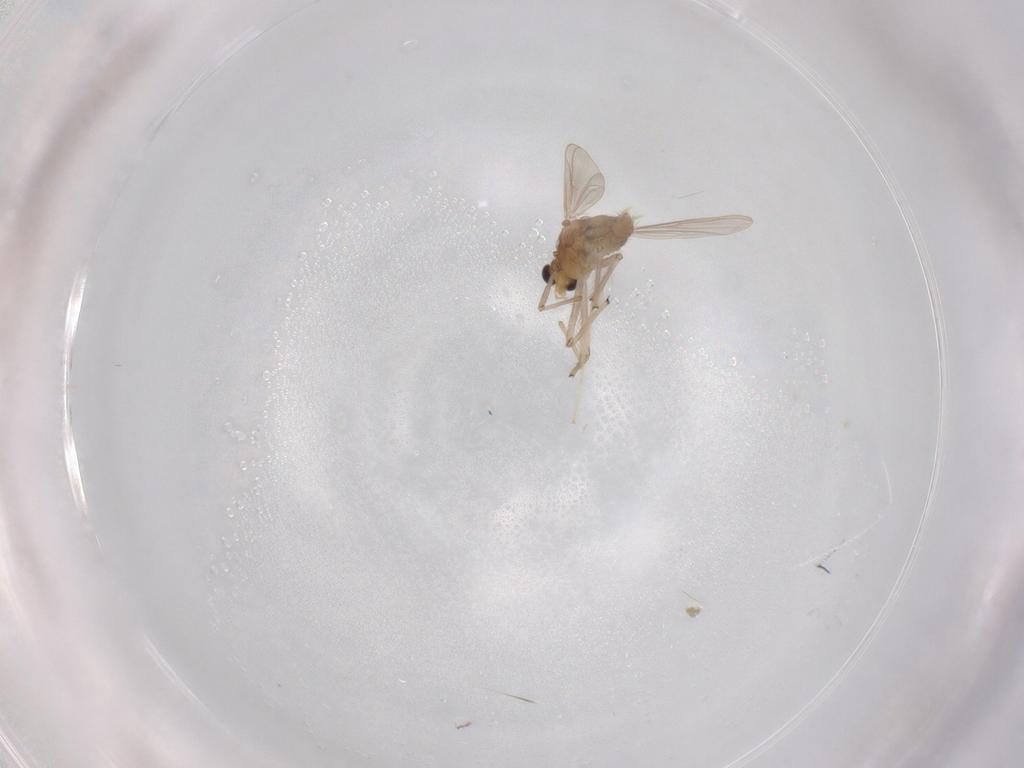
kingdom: Animalia
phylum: Arthropoda
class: Insecta
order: Diptera
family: Chironomidae
